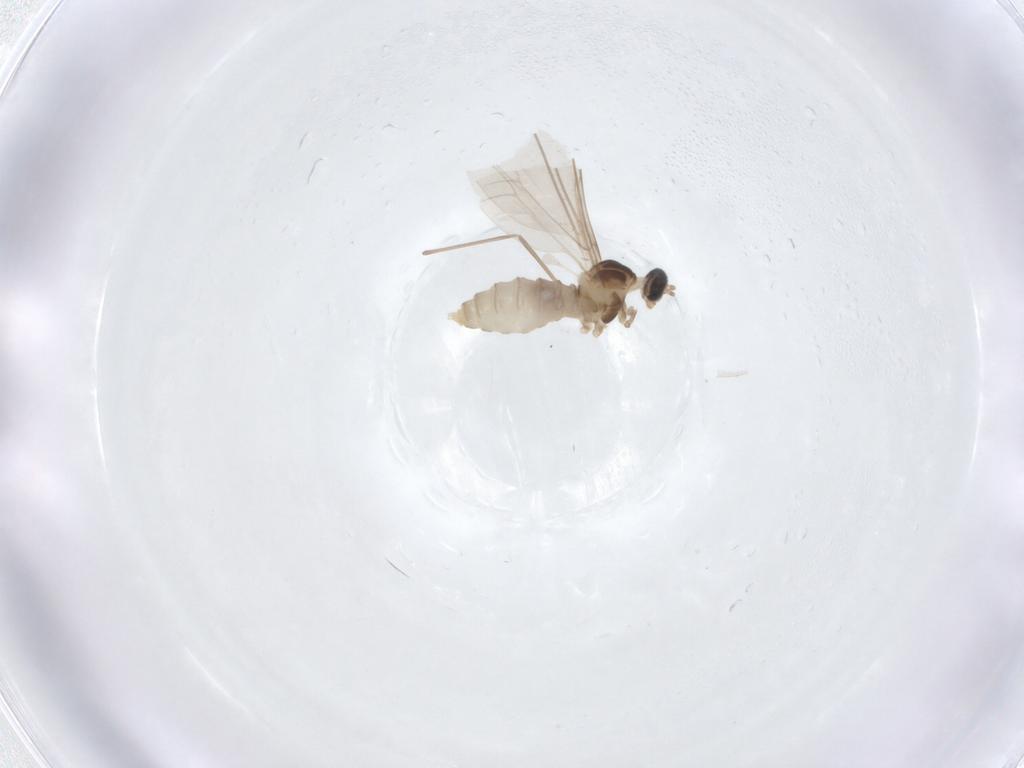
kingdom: Animalia
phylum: Arthropoda
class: Insecta
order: Diptera
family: Cecidomyiidae
